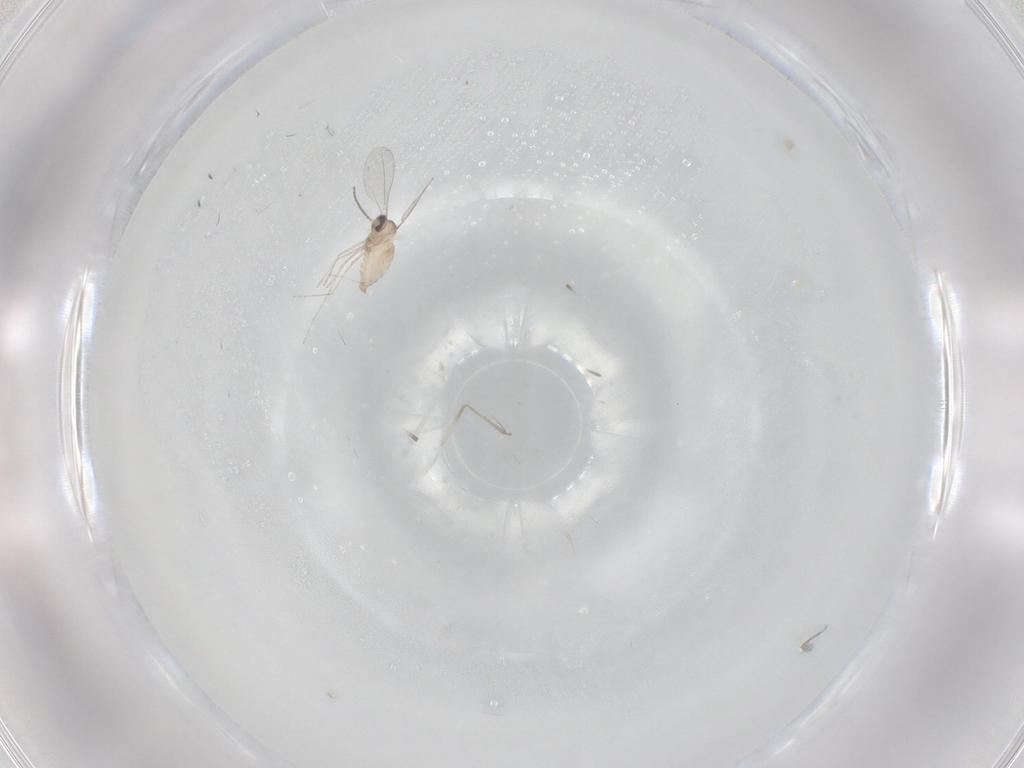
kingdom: Animalia
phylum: Arthropoda
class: Insecta
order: Diptera
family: Cecidomyiidae
